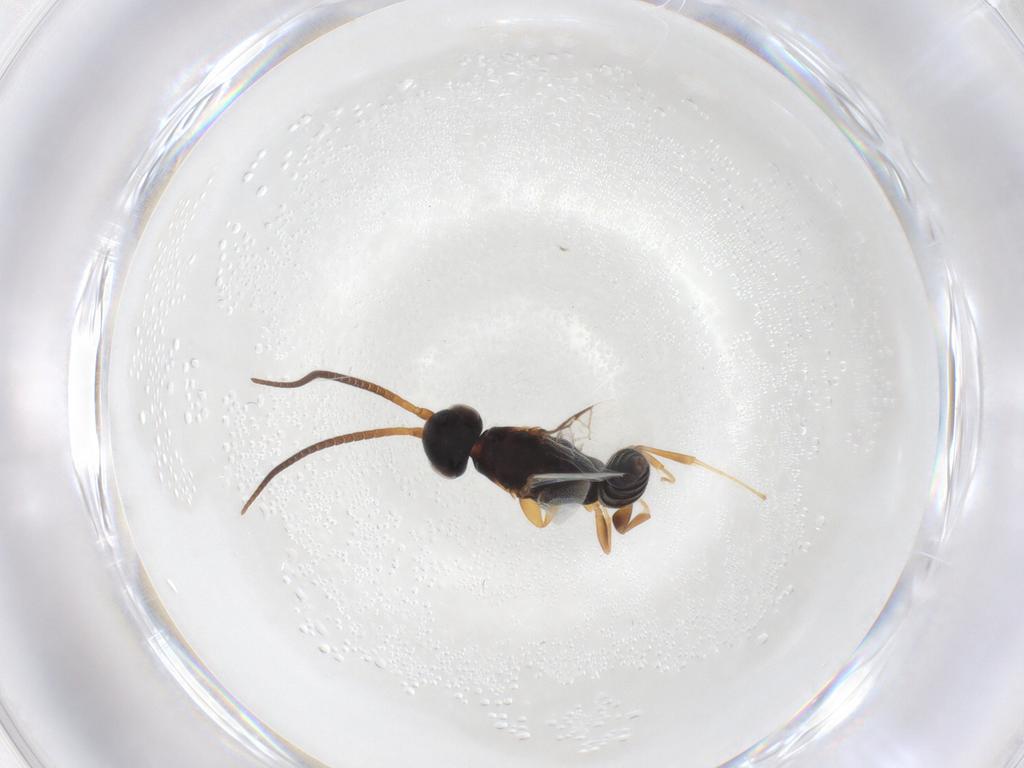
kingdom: Animalia
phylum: Arthropoda
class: Insecta
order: Hymenoptera
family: Sclerogibbidae
